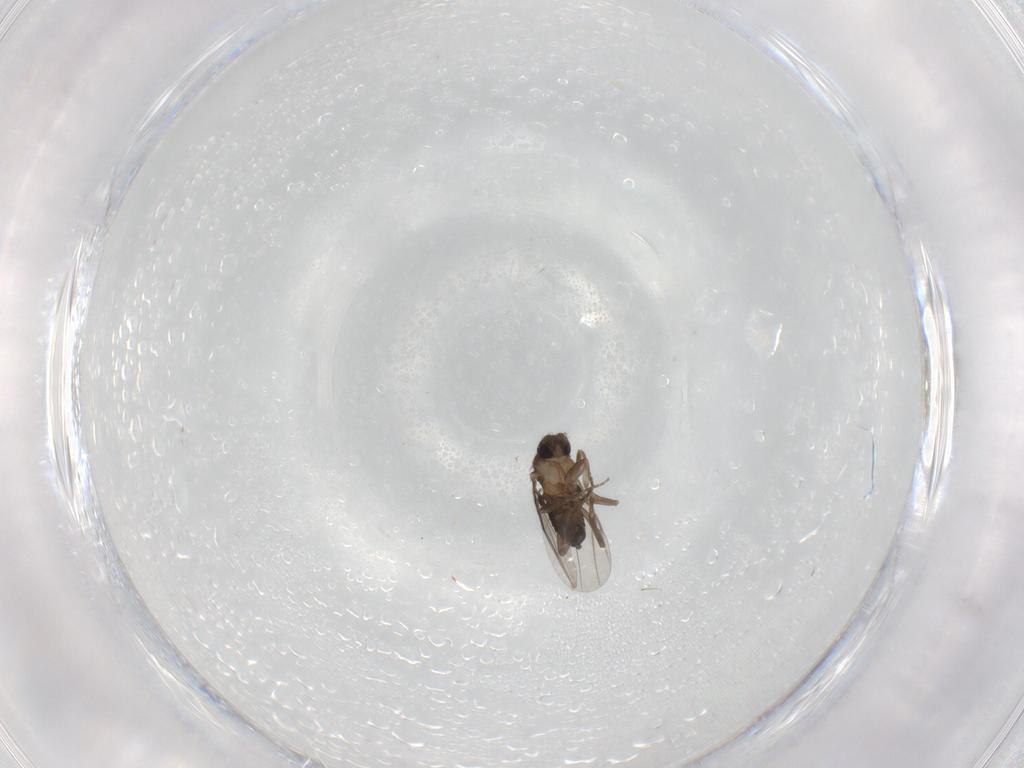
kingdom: Animalia
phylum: Arthropoda
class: Insecta
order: Diptera
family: Phoridae
